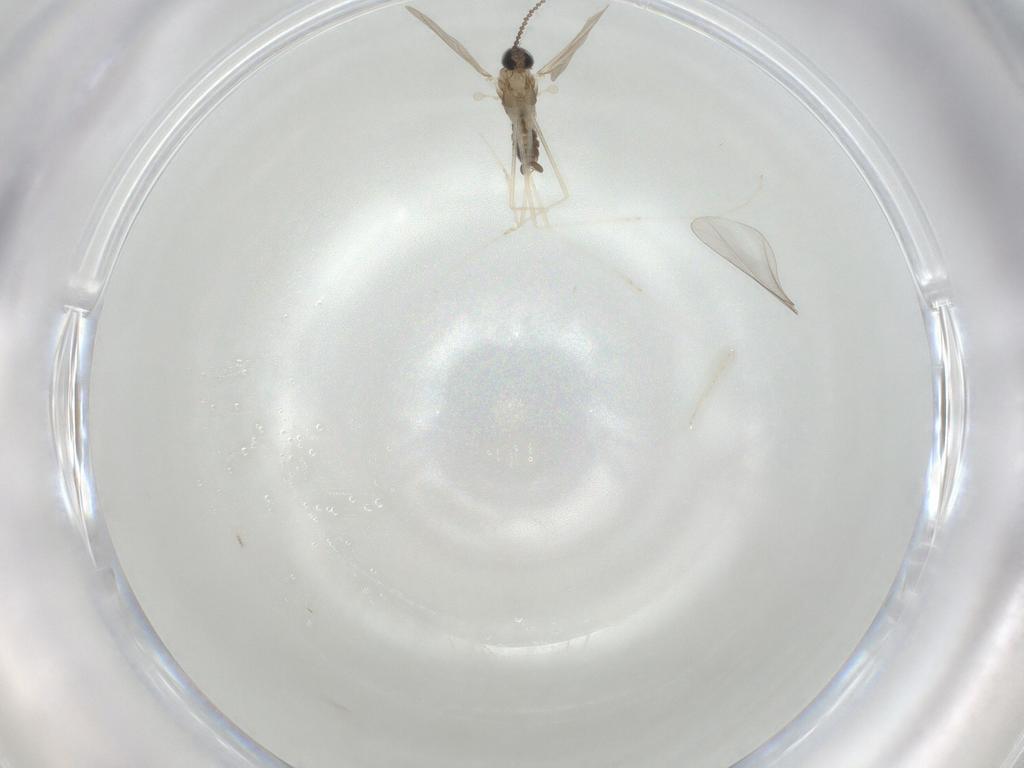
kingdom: Animalia
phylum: Arthropoda
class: Insecta
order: Diptera
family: Cecidomyiidae
